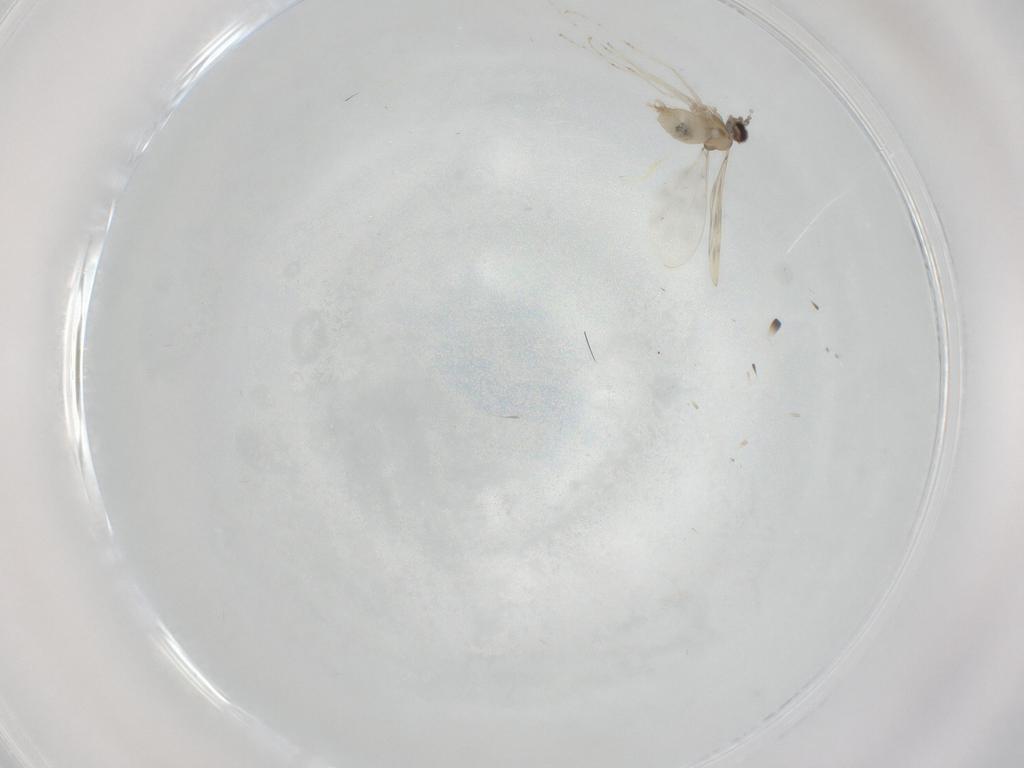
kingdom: Animalia
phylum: Arthropoda
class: Insecta
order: Diptera
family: Cecidomyiidae
